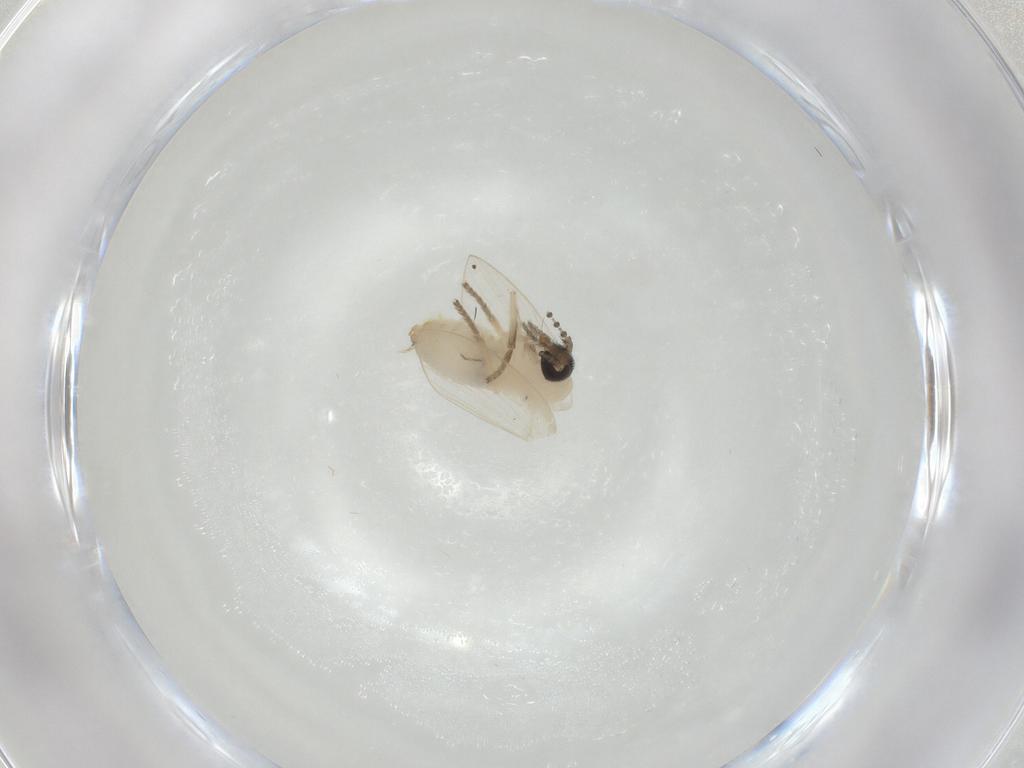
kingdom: Animalia
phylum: Arthropoda
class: Insecta
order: Diptera
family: Psychodidae
